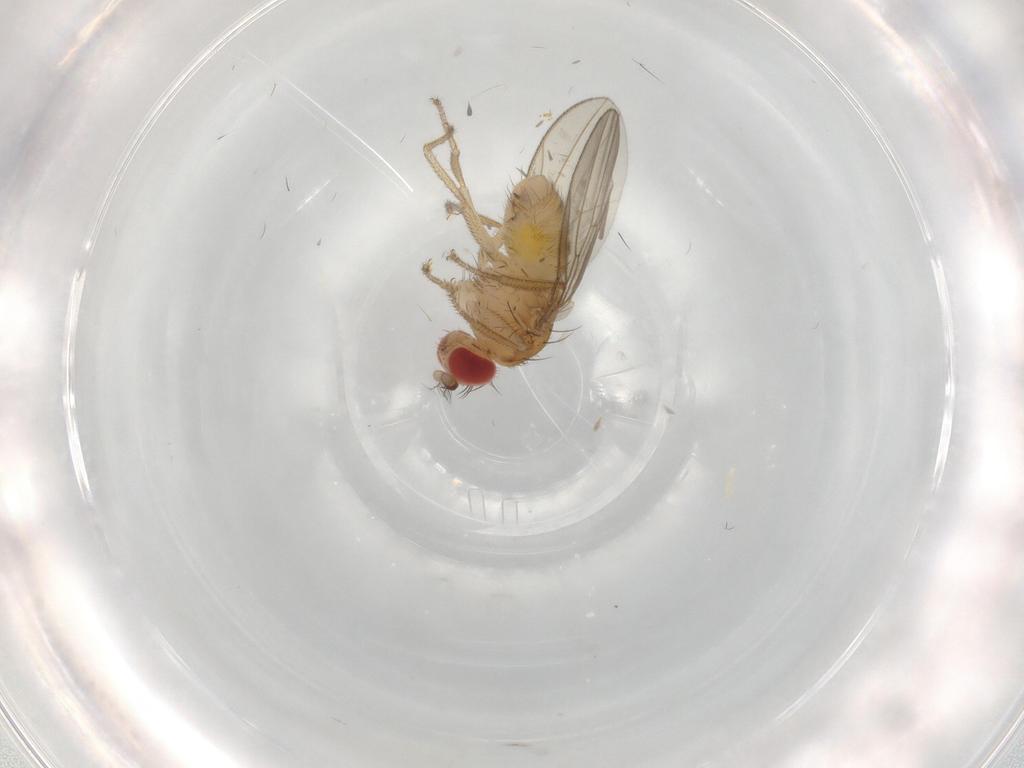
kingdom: Animalia
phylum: Arthropoda
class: Insecta
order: Diptera
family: Drosophilidae
